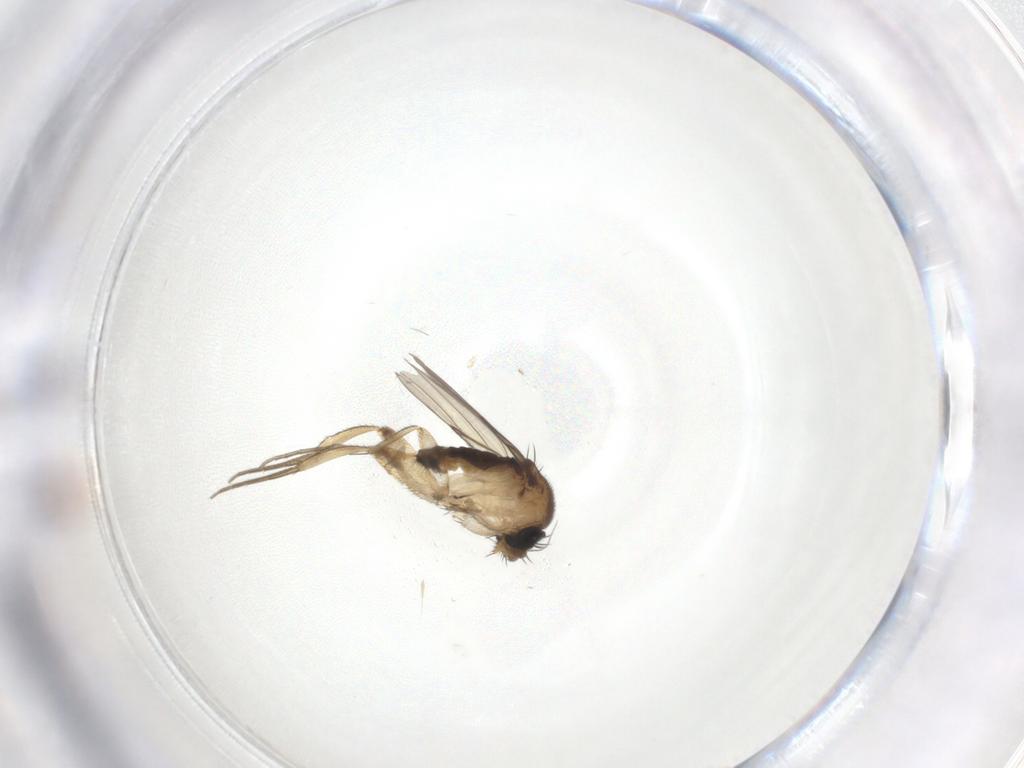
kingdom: Animalia
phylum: Arthropoda
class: Insecta
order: Diptera
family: Phoridae
